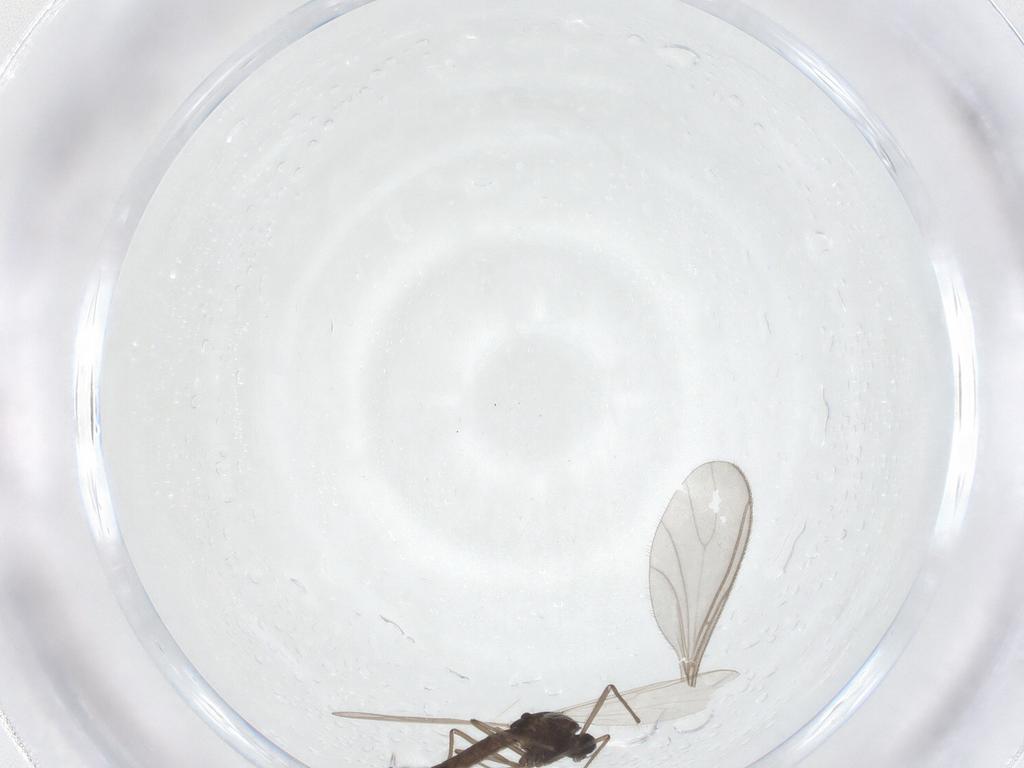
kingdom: Animalia
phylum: Arthropoda
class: Insecta
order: Diptera
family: Chironomidae
